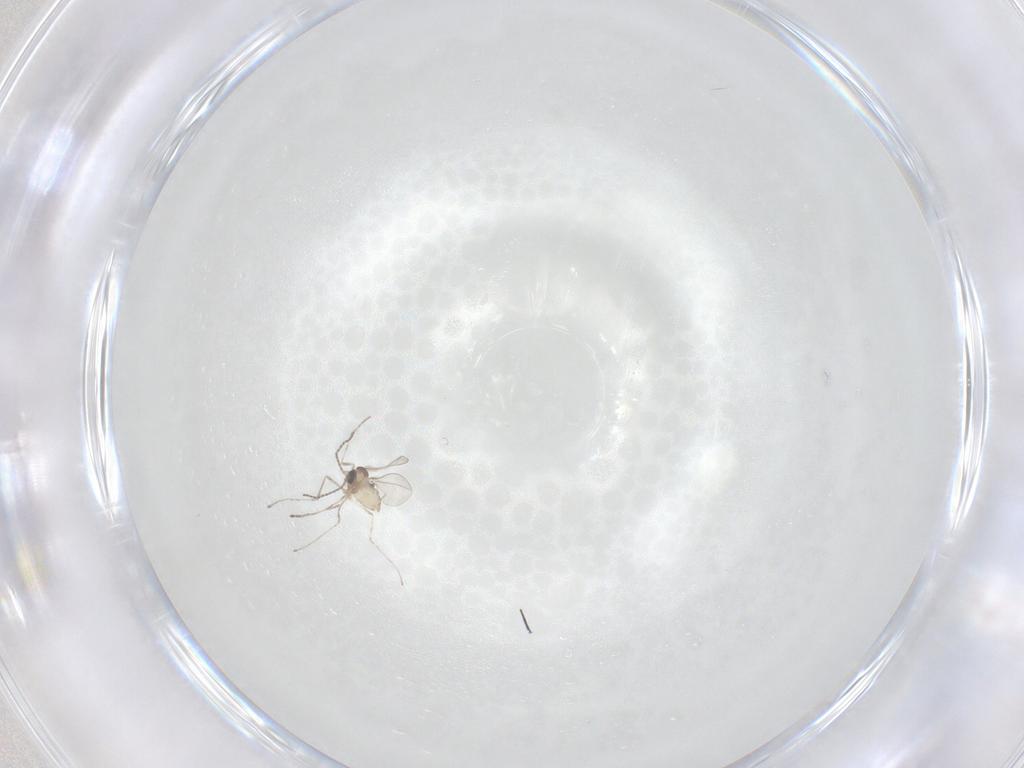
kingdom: Animalia
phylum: Arthropoda
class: Insecta
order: Diptera
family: Cecidomyiidae
